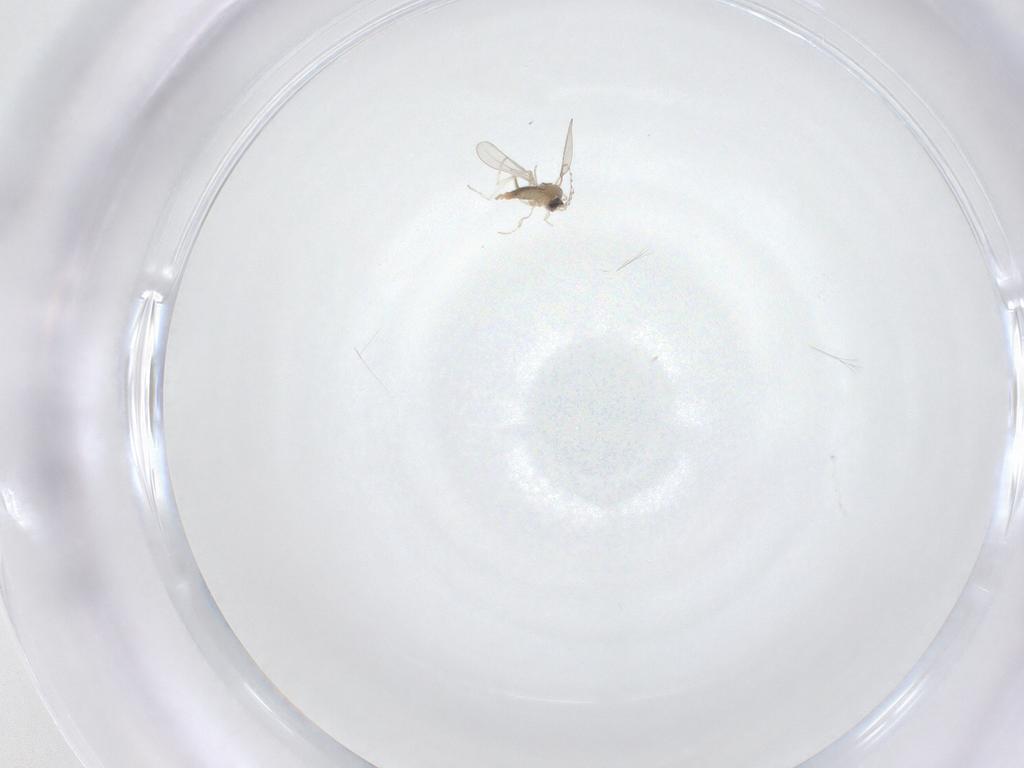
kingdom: Animalia
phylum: Arthropoda
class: Insecta
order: Diptera
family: Cecidomyiidae
